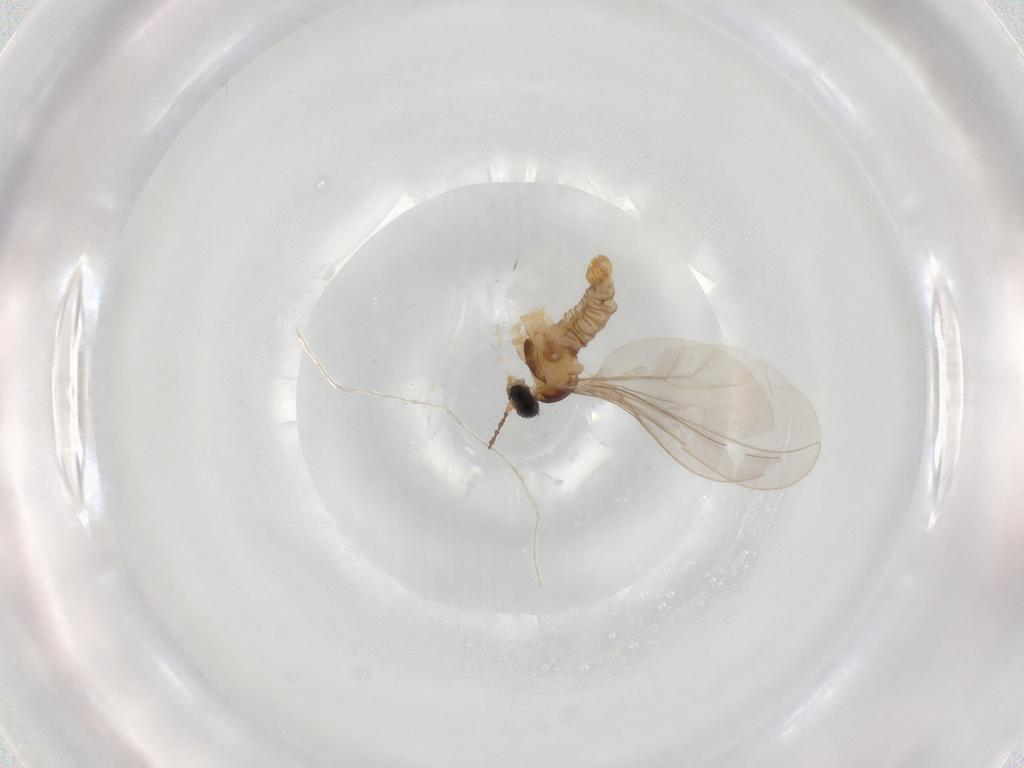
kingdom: Animalia
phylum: Arthropoda
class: Insecta
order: Diptera
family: Cecidomyiidae
